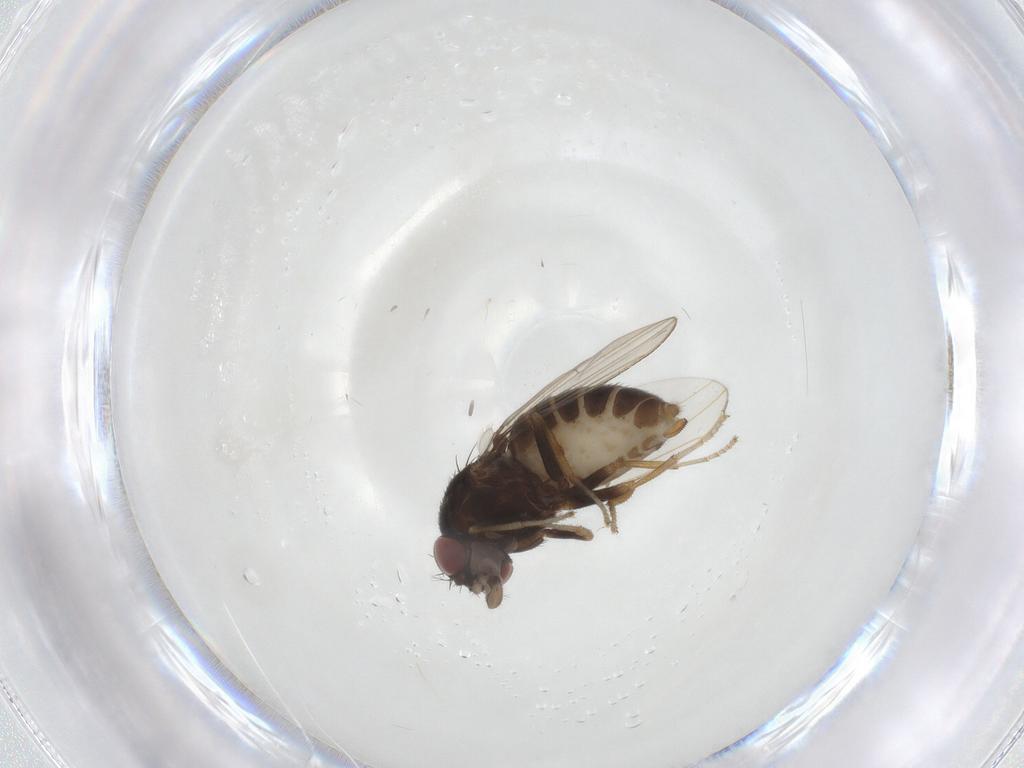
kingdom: Animalia
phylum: Arthropoda
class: Insecta
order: Diptera
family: Drosophilidae
